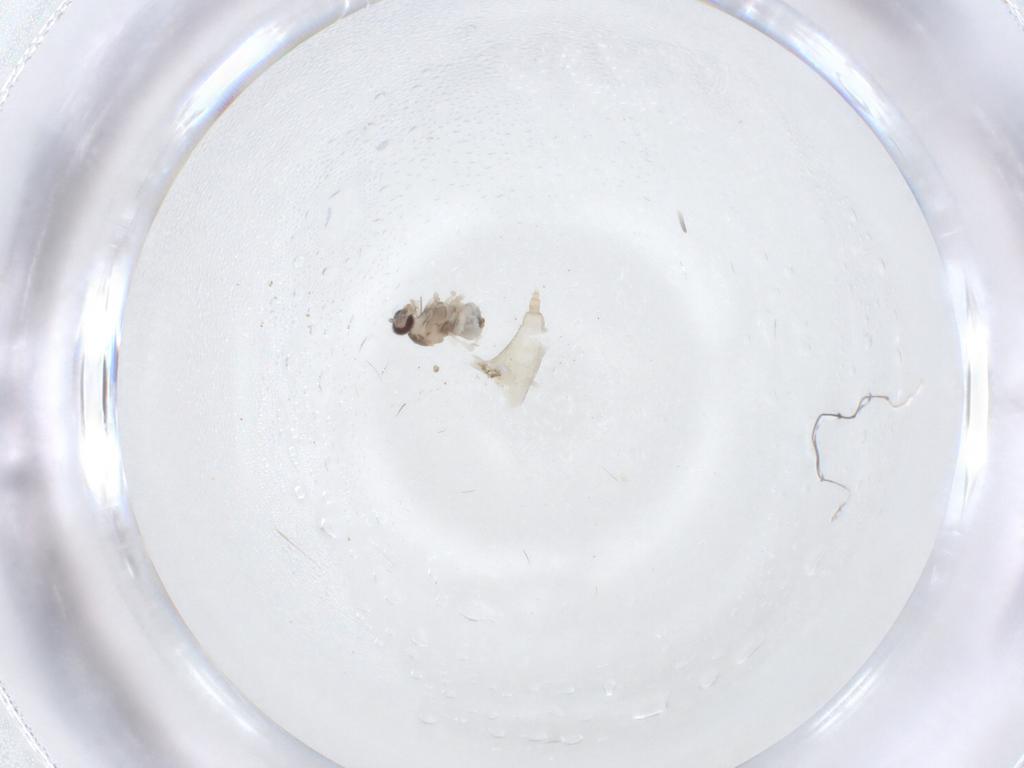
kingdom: Animalia
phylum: Arthropoda
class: Insecta
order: Diptera
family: Cecidomyiidae
